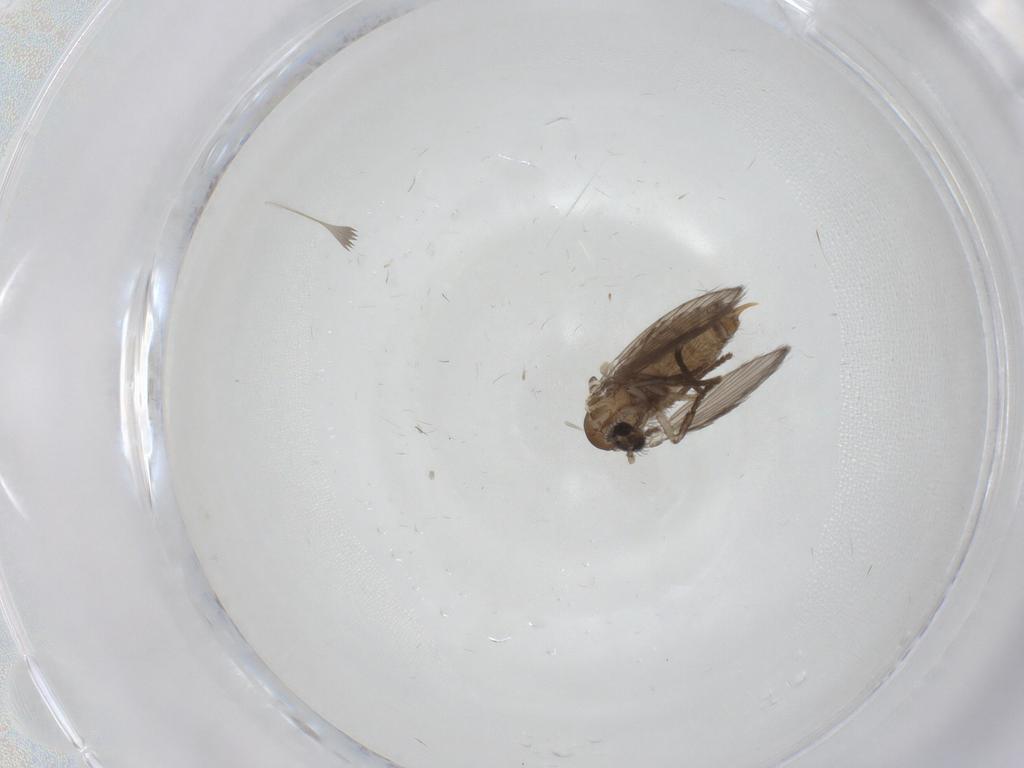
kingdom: Animalia
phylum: Arthropoda
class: Insecta
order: Diptera
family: Psychodidae
